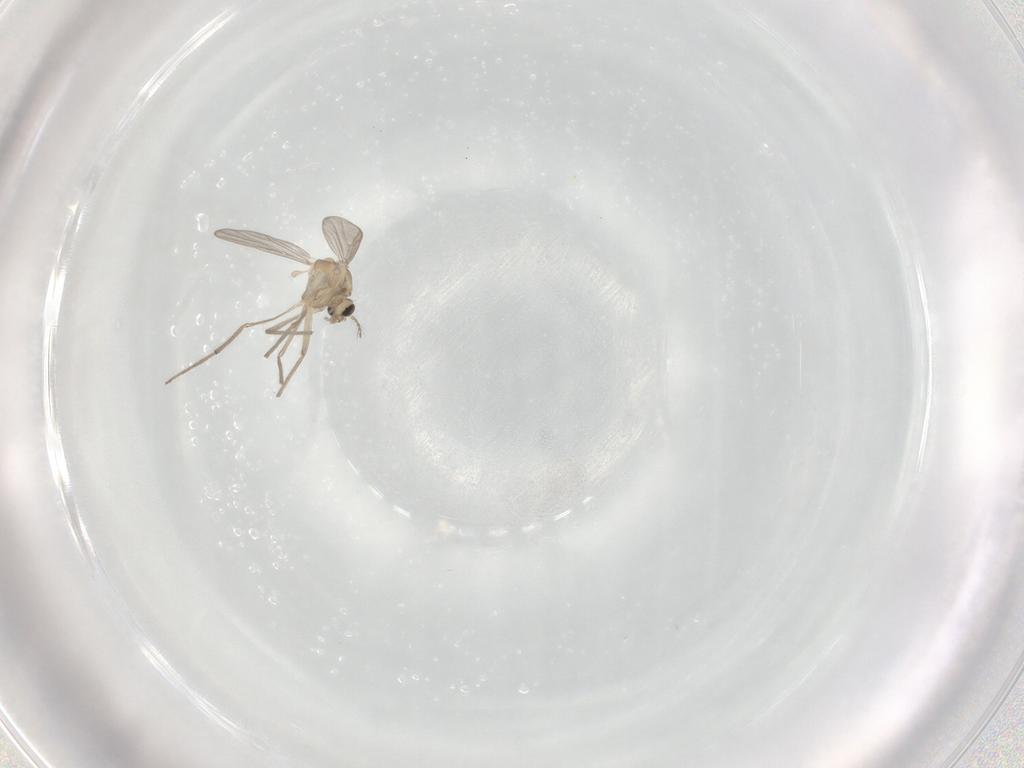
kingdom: Animalia
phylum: Arthropoda
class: Insecta
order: Diptera
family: Chironomidae
